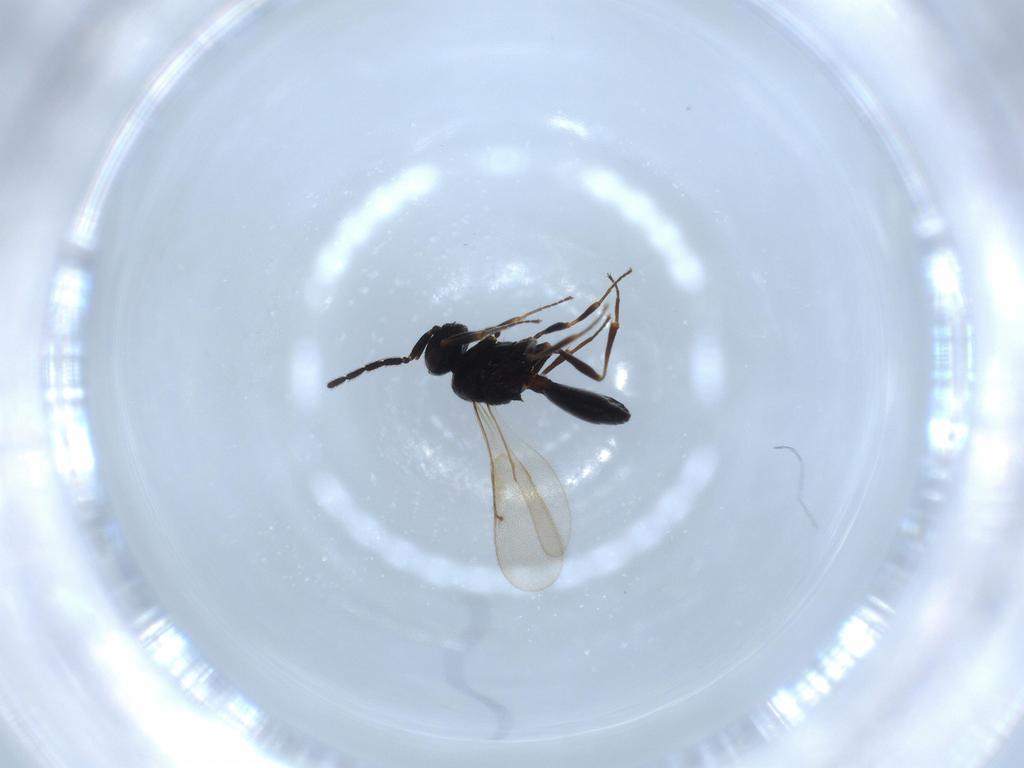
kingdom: Animalia
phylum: Arthropoda
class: Insecta
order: Hymenoptera
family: Scelionidae
